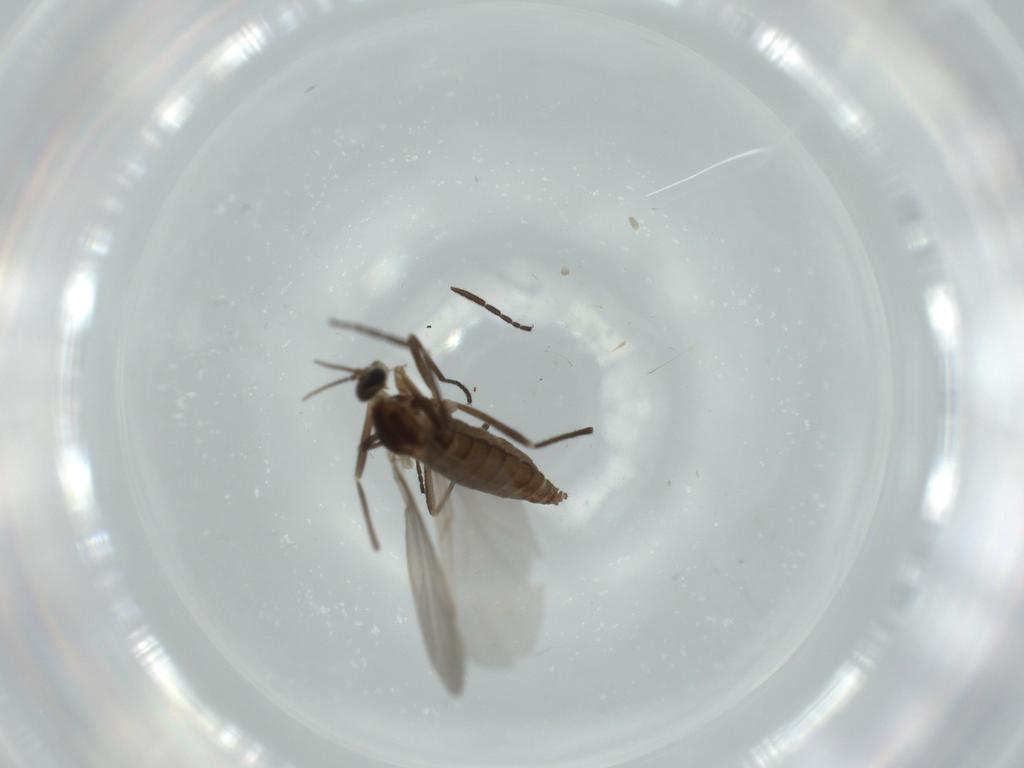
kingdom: Animalia
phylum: Arthropoda
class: Insecta
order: Diptera
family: Cecidomyiidae
